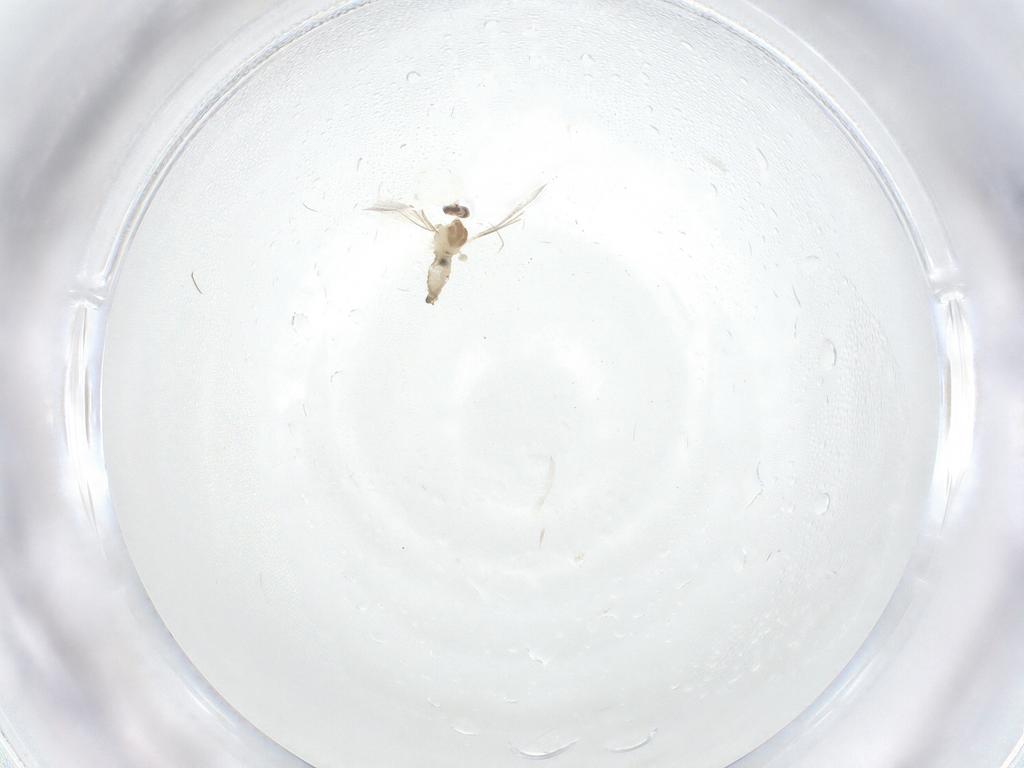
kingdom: Animalia
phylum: Arthropoda
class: Insecta
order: Diptera
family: Cecidomyiidae
